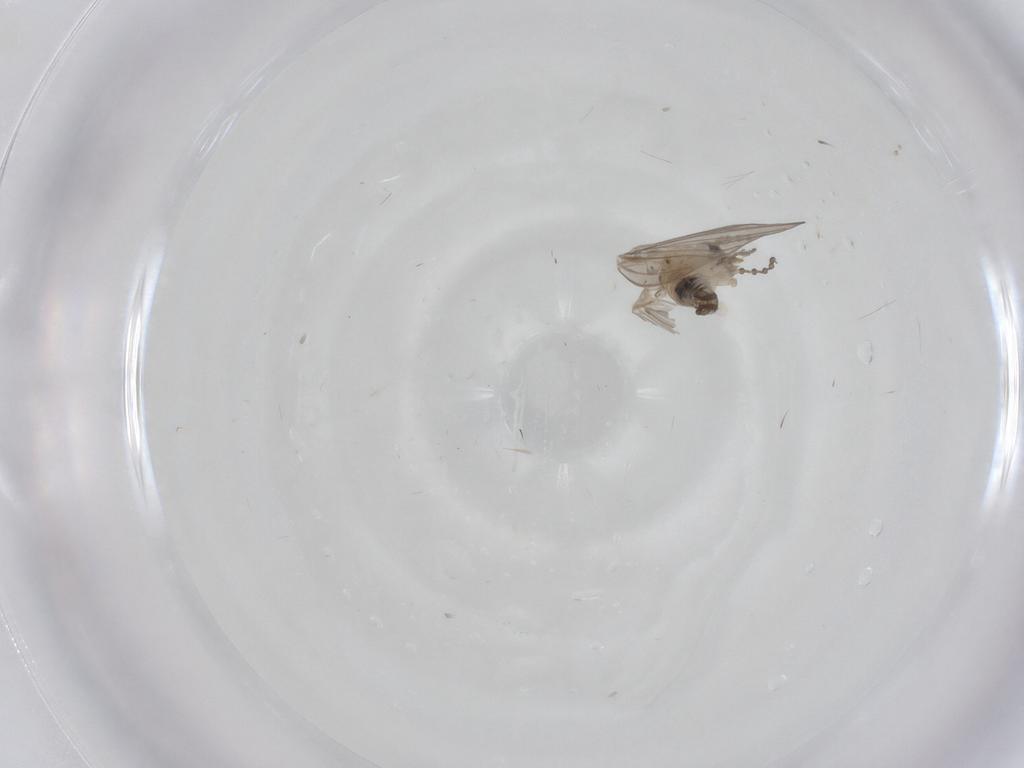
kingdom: Animalia
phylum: Arthropoda
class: Insecta
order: Diptera
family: Psychodidae
